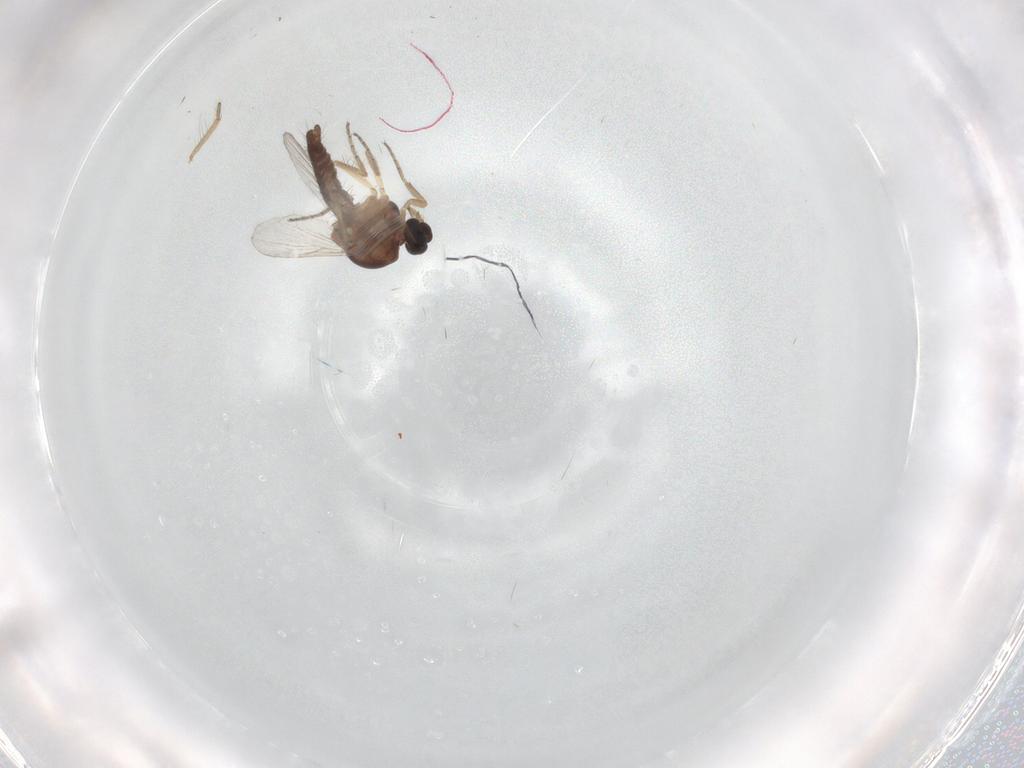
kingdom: Animalia
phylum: Arthropoda
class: Insecta
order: Diptera
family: Ceratopogonidae
